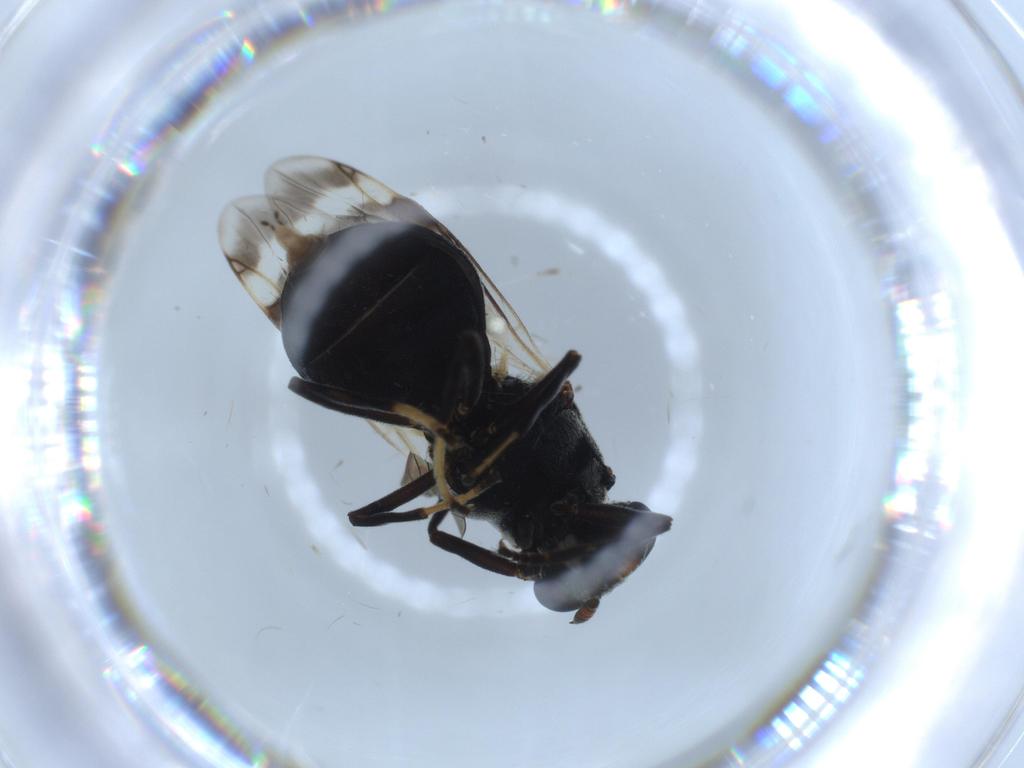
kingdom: Animalia
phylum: Arthropoda
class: Insecta
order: Diptera
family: Stratiomyidae
